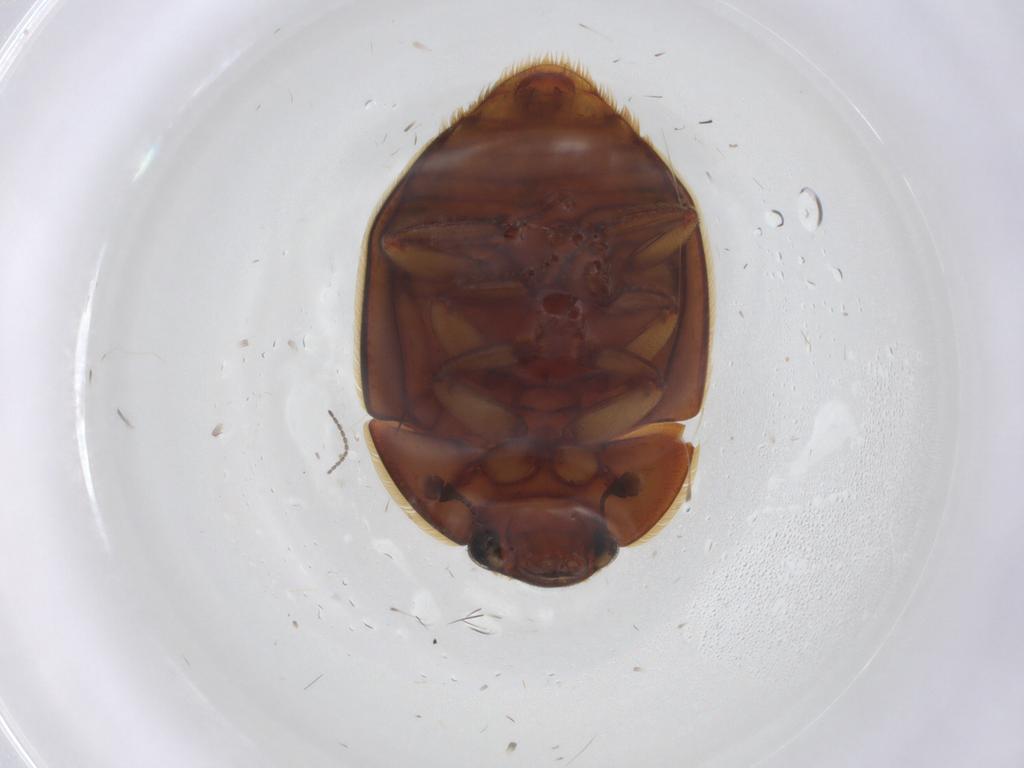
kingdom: Animalia
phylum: Arthropoda
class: Insecta
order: Coleoptera
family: Nitidulidae
